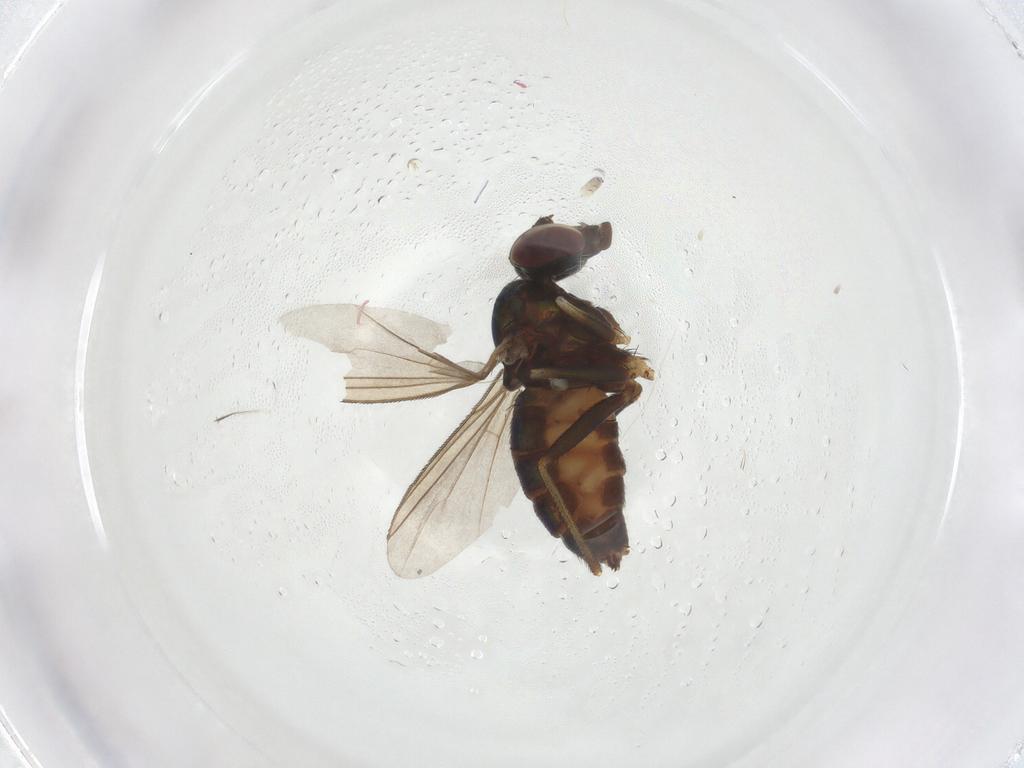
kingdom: Animalia
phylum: Arthropoda
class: Insecta
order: Diptera
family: Dolichopodidae
